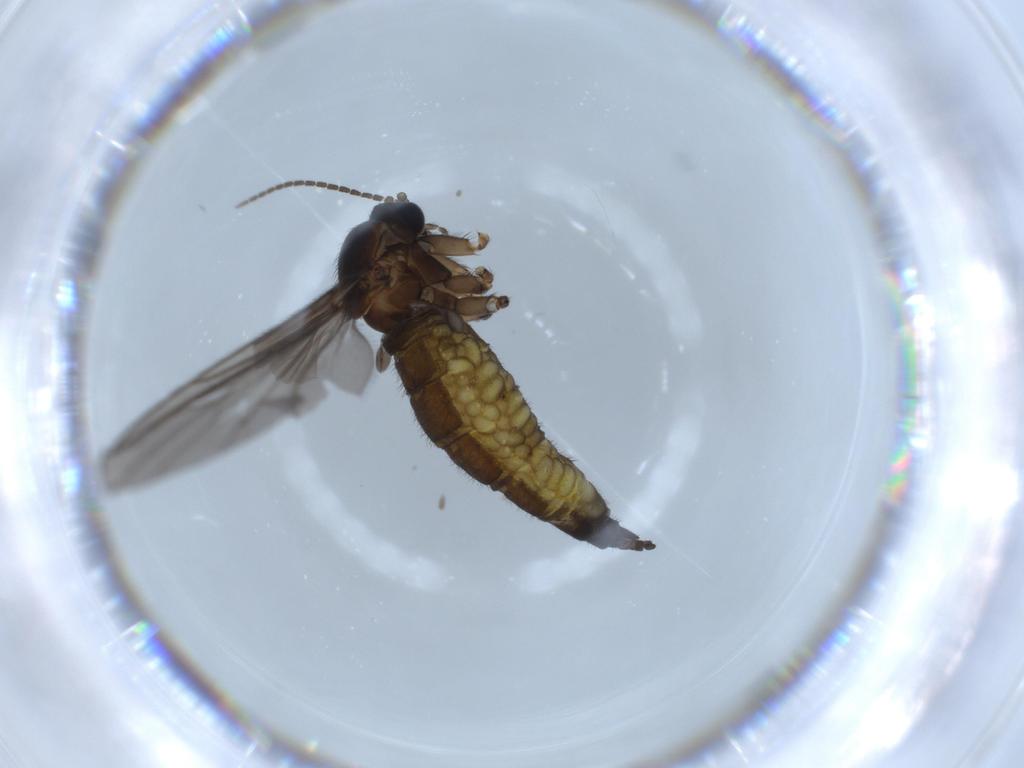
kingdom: Animalia
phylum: Arthropoda
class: Insecta
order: Diptera
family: Sciaridae
